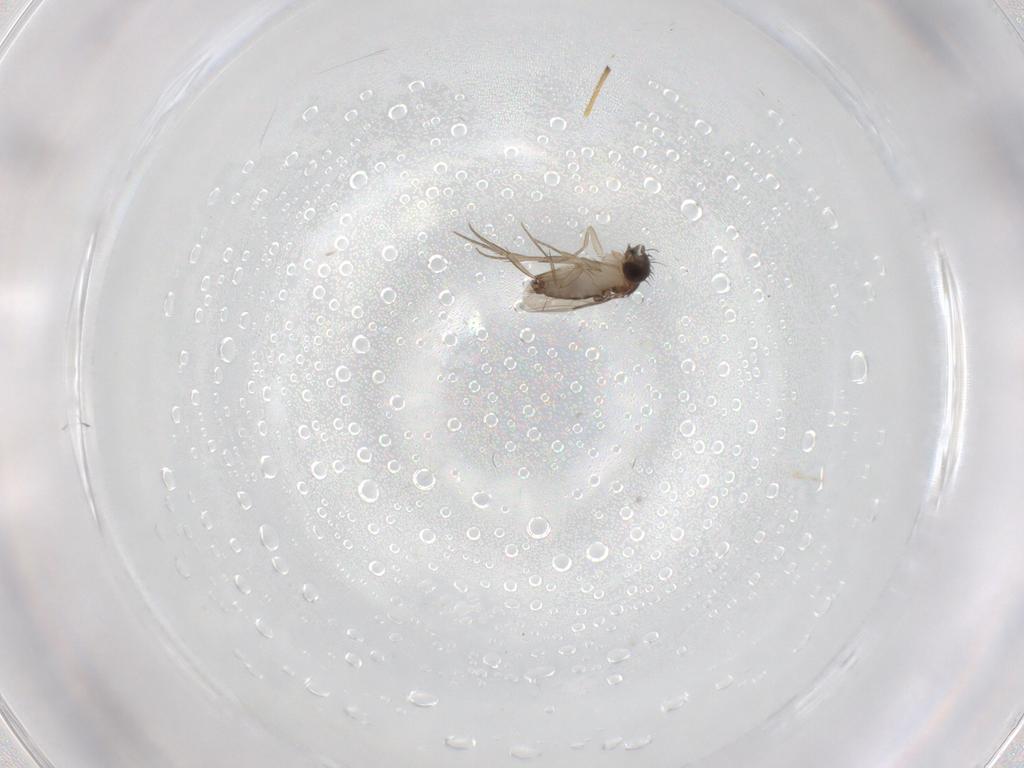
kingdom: Animalia
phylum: Arthropoda
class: Insecta
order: Diptera
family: Phoridae
